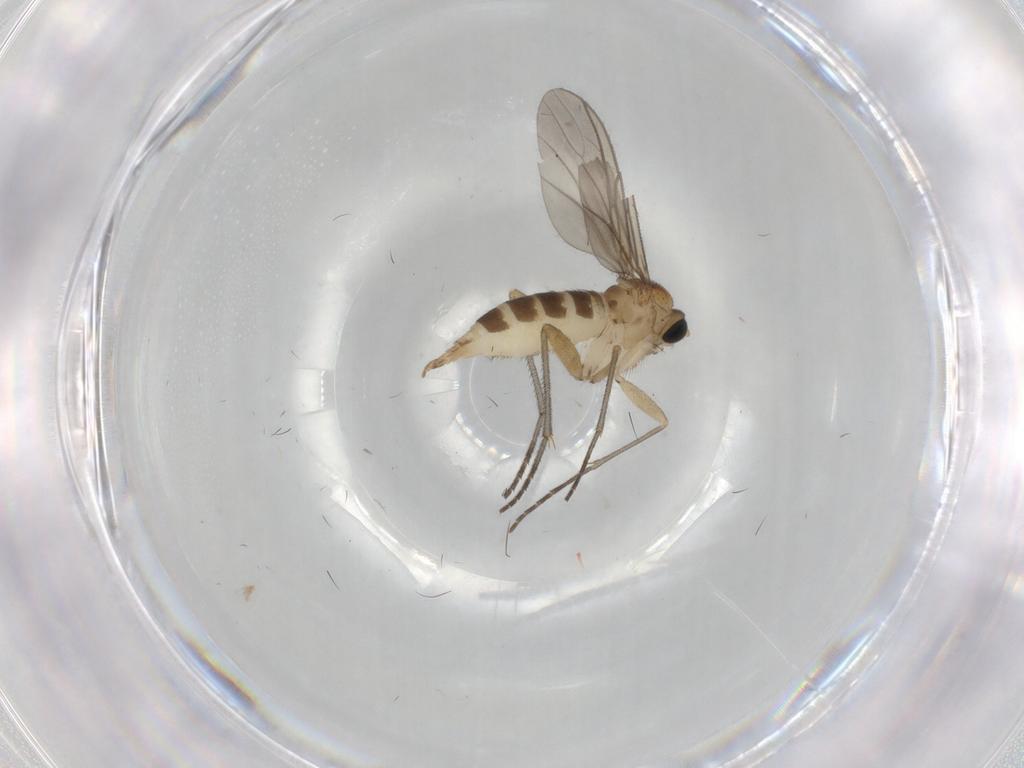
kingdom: Animalia
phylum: Arthropoda
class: Insecta
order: Diptera
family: Sciaridae
